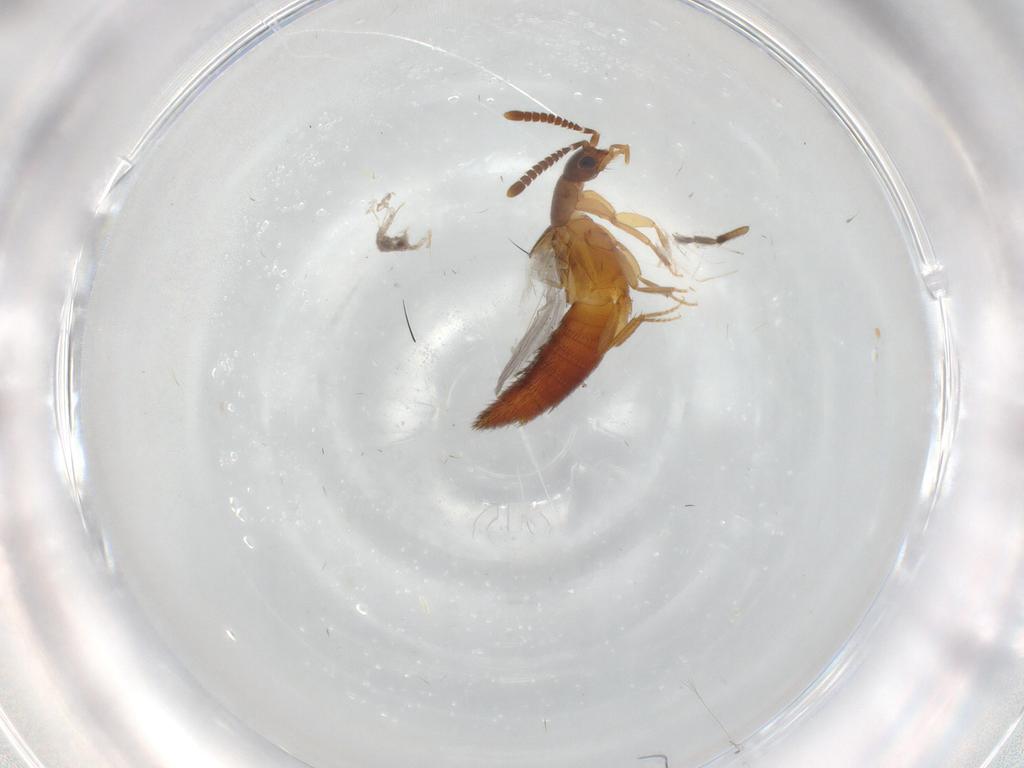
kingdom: Animalia
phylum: Arthropoda
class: Insecta
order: Coleoptera
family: Staphylinidae
